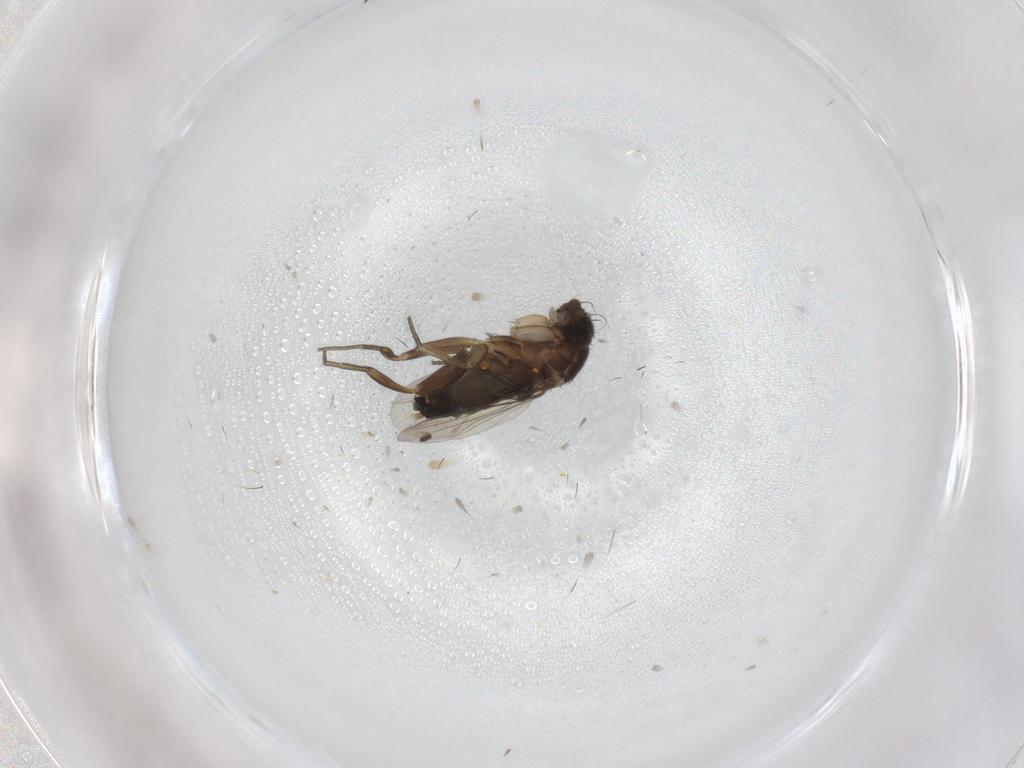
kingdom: Animalia
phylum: Arthropoda
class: Insecta
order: Diptera
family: Phoridae
